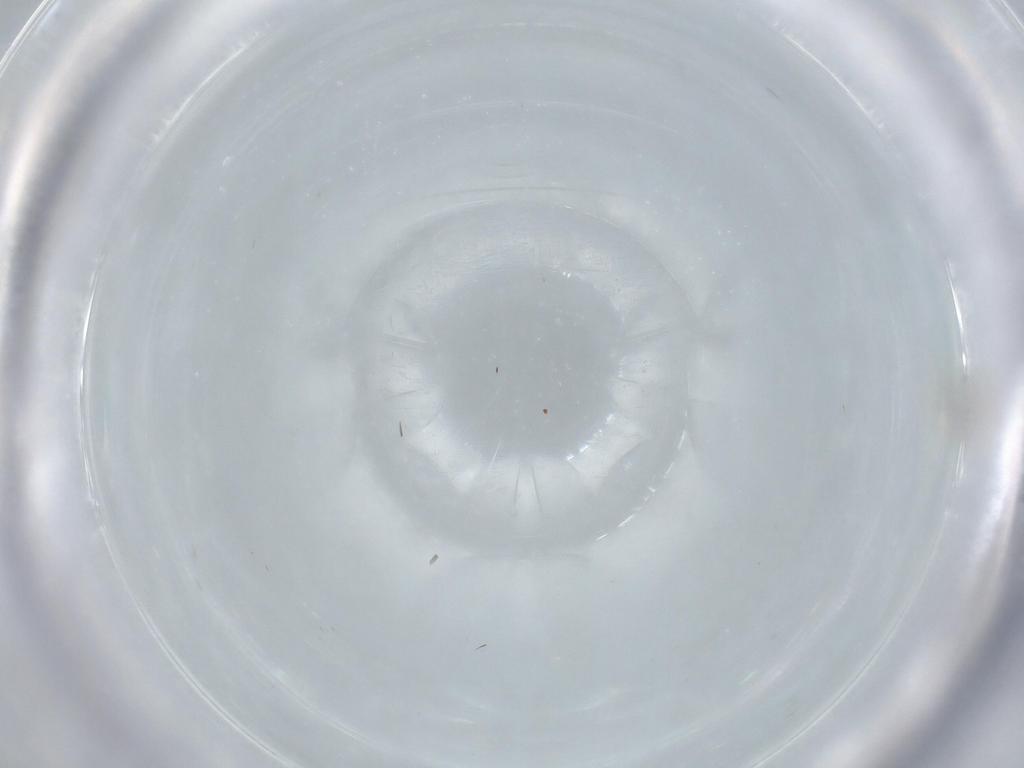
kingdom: Animalia
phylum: Arthropoda
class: Insecta
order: Diptera
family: Cecidomyiidae
